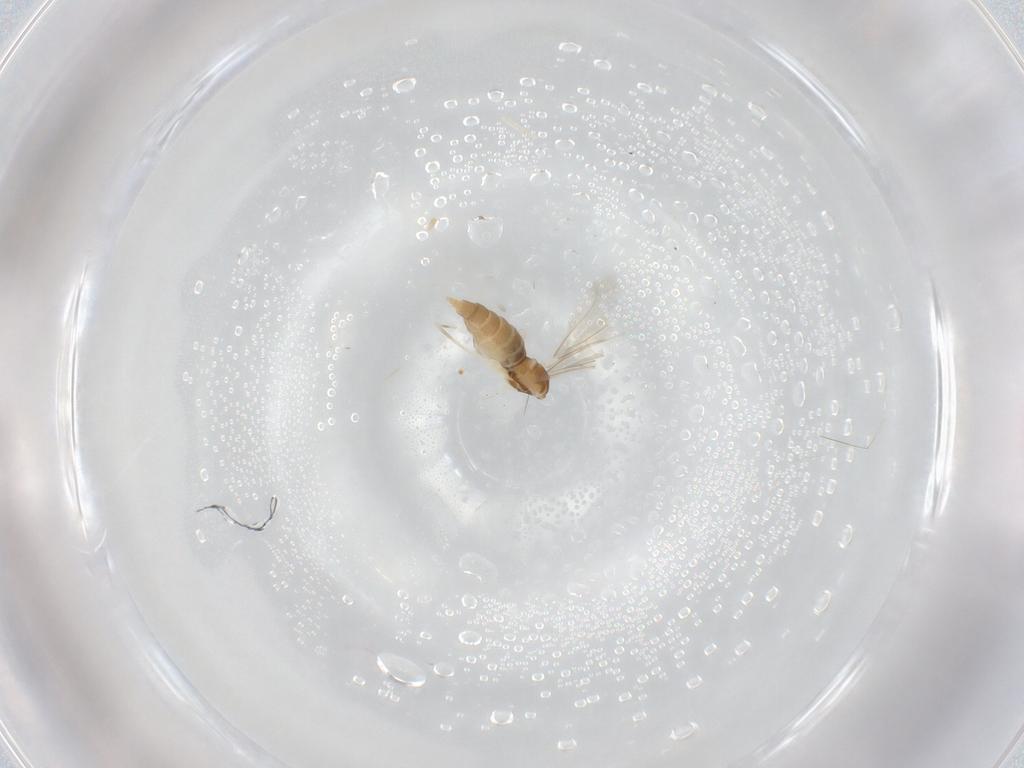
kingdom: Animalia
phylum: Arthropoda
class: Insecta
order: Diptera
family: Cecidomyiidae
